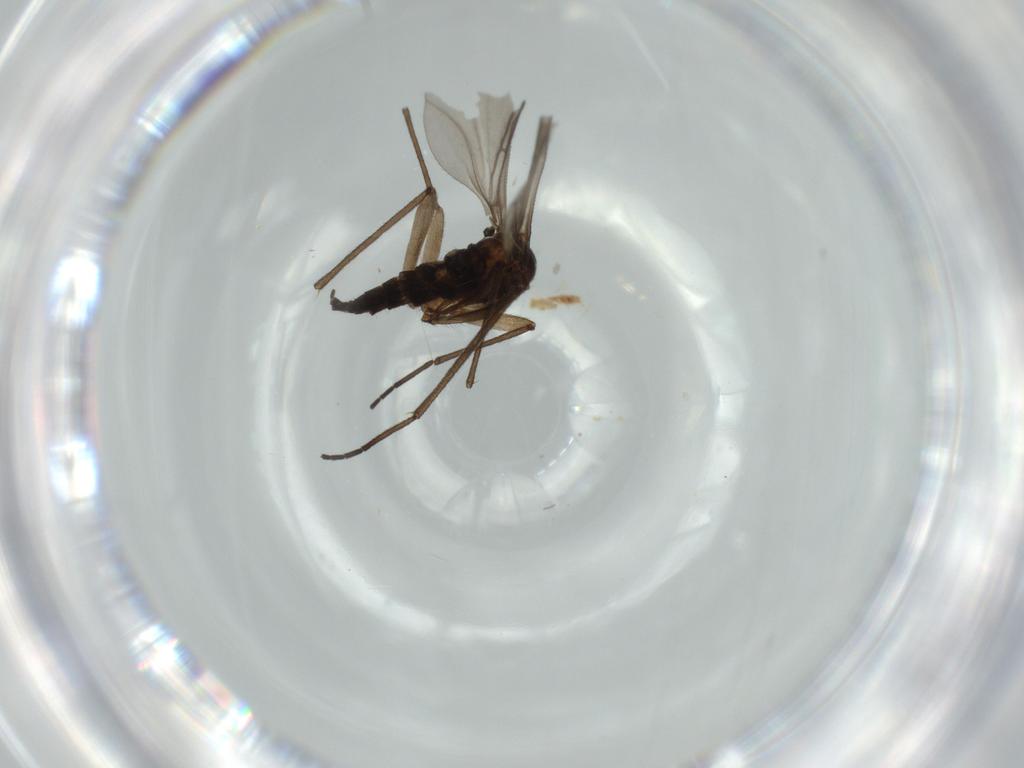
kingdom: Animalia
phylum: Arthropoda
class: Insecta
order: Diptera
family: Sciaridae
